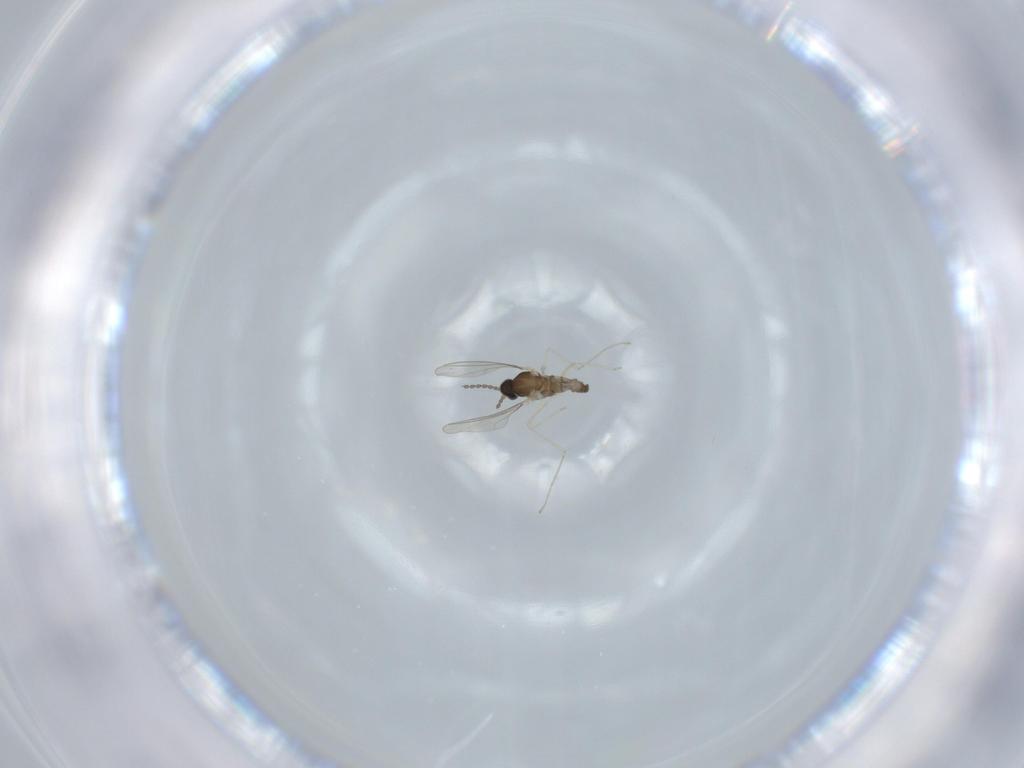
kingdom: Animalia
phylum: Arthropoda
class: Insecta
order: Diptera
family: Cecidomyiidae
